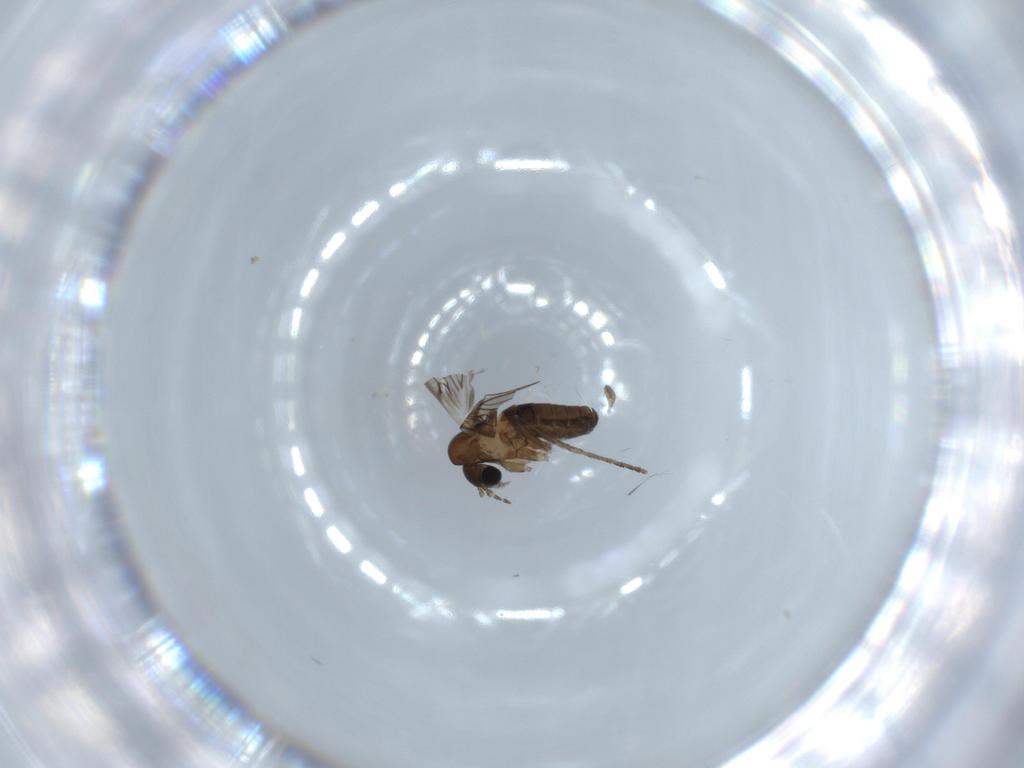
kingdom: Animalia
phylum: Arthropoda
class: Insecta
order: Diptera
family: Psychodidae
